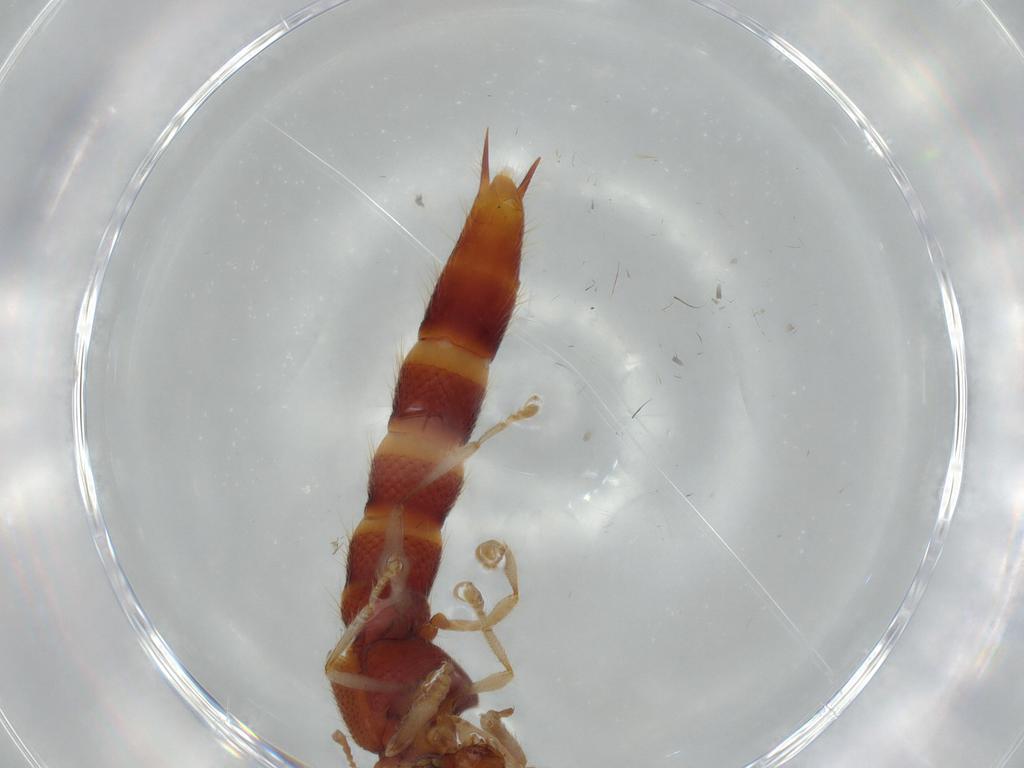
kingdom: Animalia
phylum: Arthropoda
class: Insecta
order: Coleoptera
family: Staphylinidae
